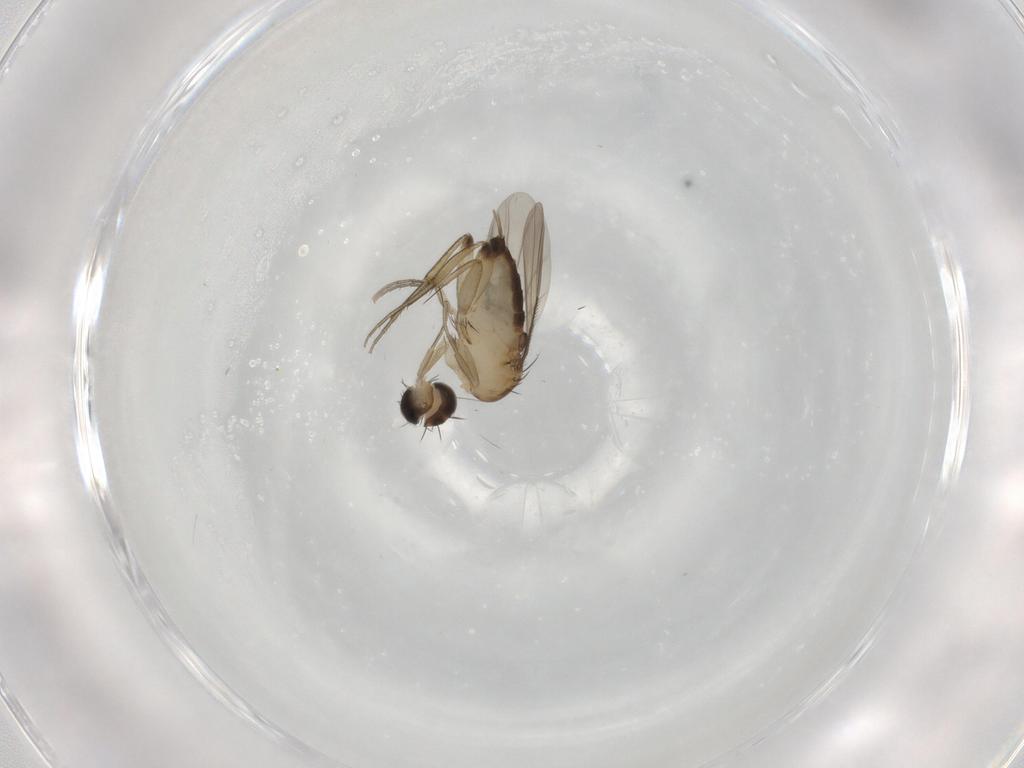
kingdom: Animalia
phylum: Arthropoda
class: Insecta
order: Diptera
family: Phoridae
